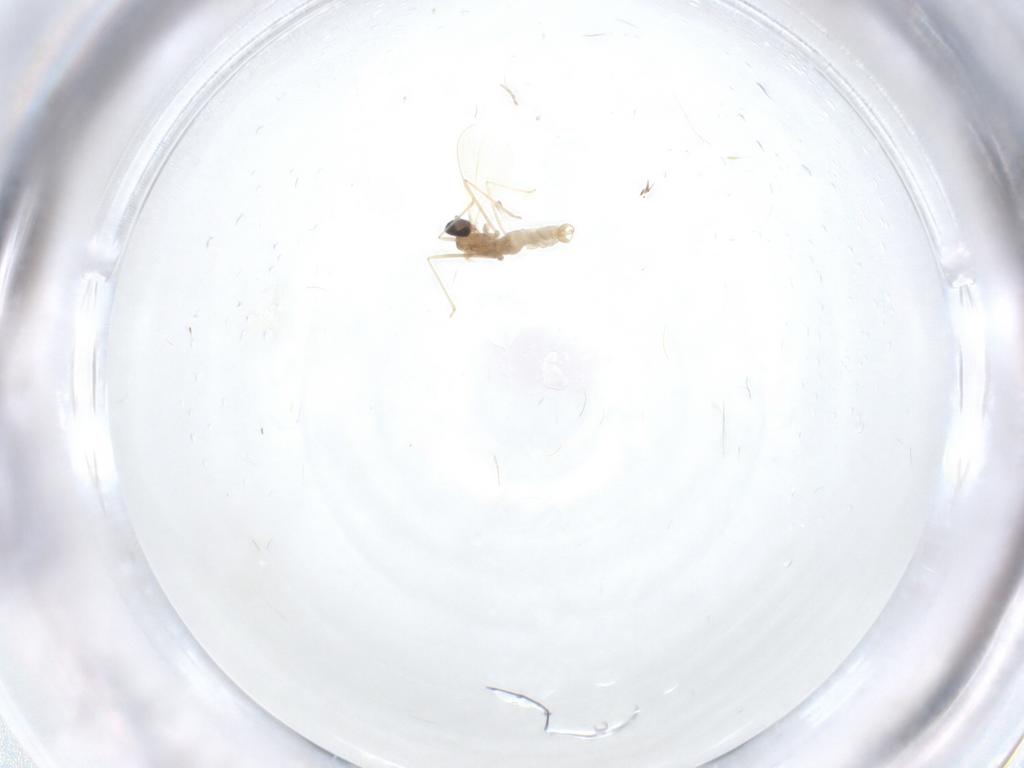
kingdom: Animalia
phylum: Arthropoda
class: Insecta
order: Diptera
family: Cecidomyiidae
